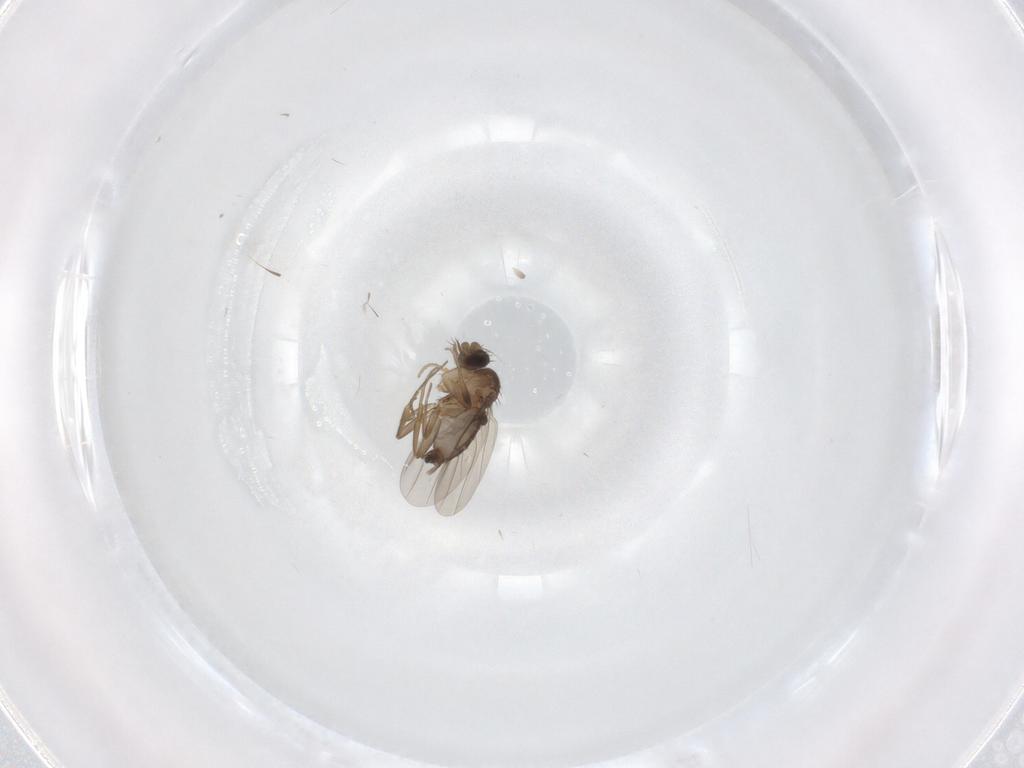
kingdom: Animalia
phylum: Arthropoda
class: Insecta
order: Diptera
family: Phoridae
